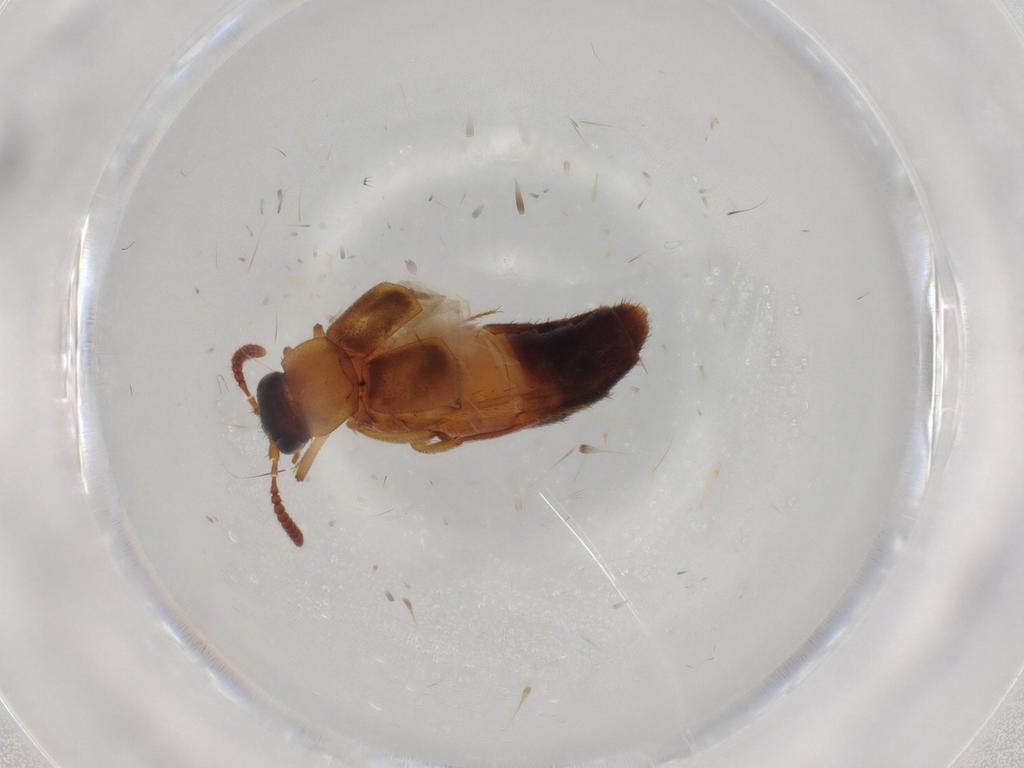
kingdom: Animalia
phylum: Arthropoda
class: Insecta
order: Coleoptera
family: Staphylinidae
